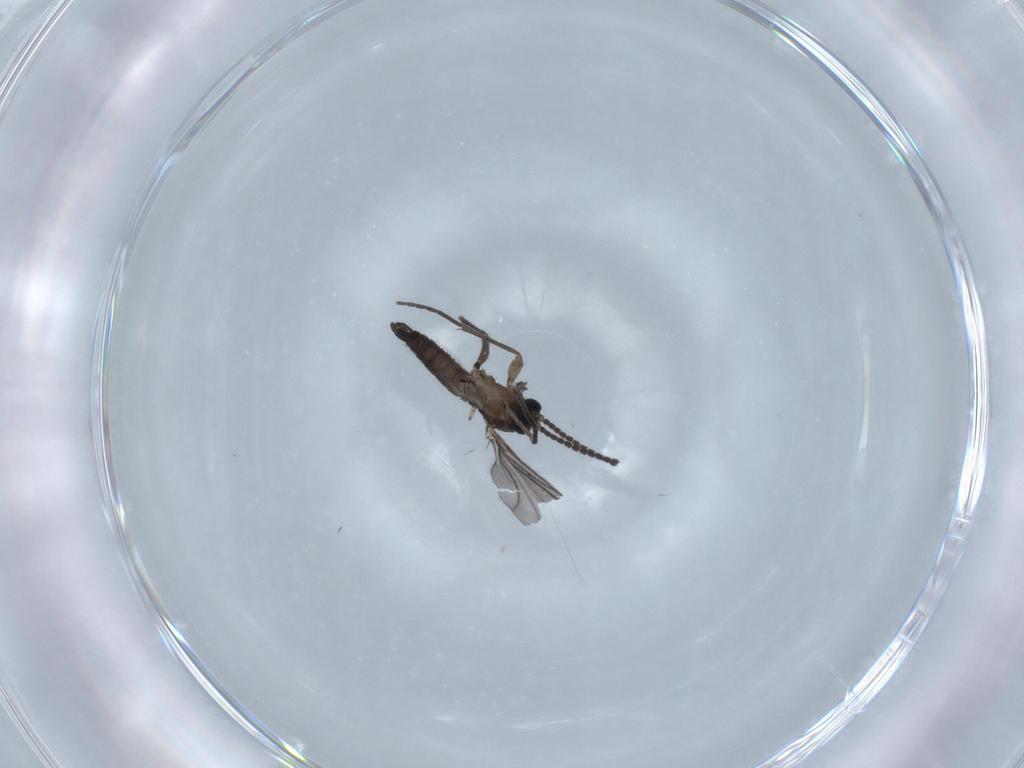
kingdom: Animalia
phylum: Arthropoda
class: Insecta
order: Diptera
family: Sciaridae
